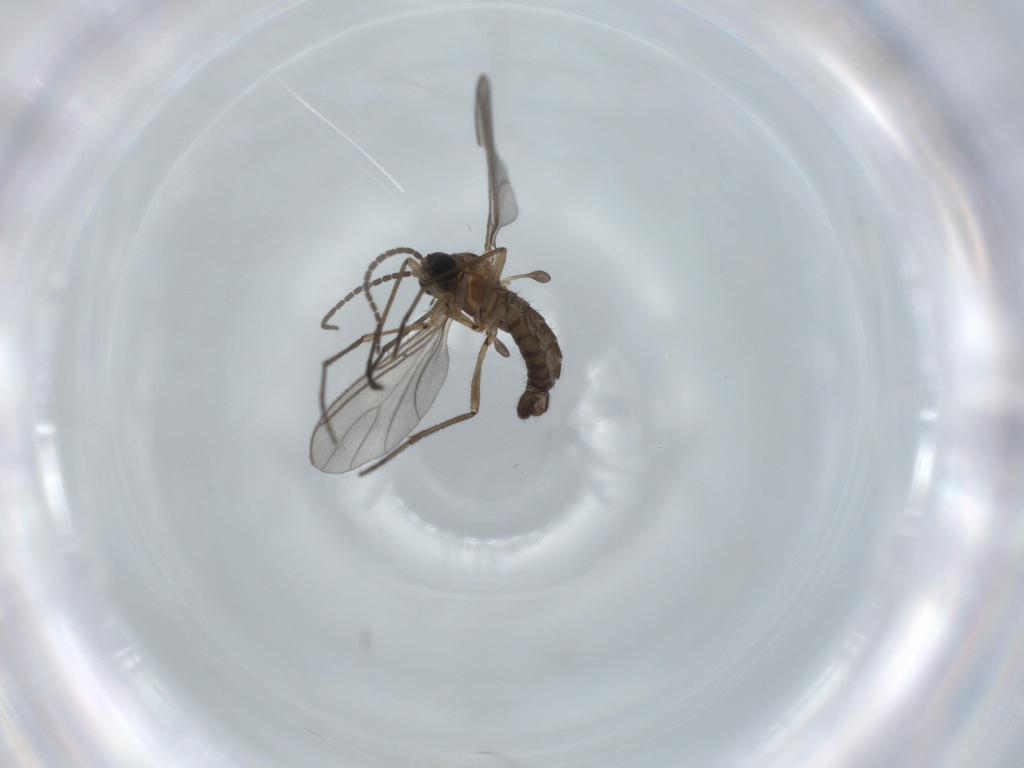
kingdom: Animalia
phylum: Arthropoda
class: Insecta
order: Diptera
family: Sciaridae
